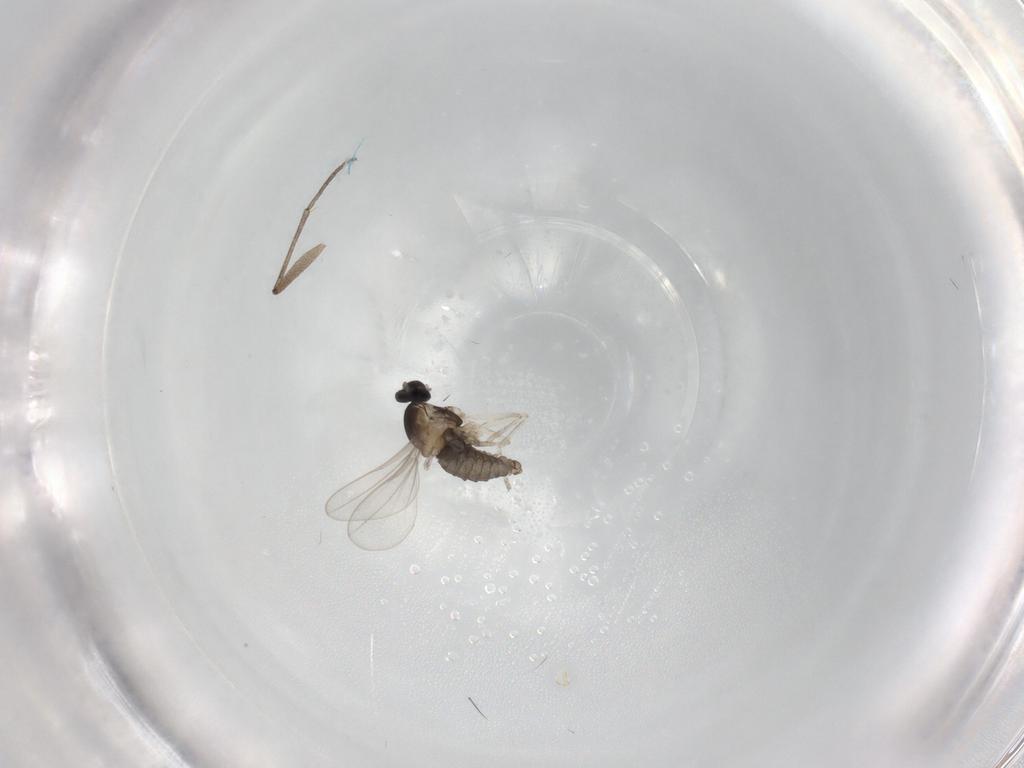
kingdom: Animalia
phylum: Arthropoda
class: Insecta
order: Diptera
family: Cecidomyiidae
